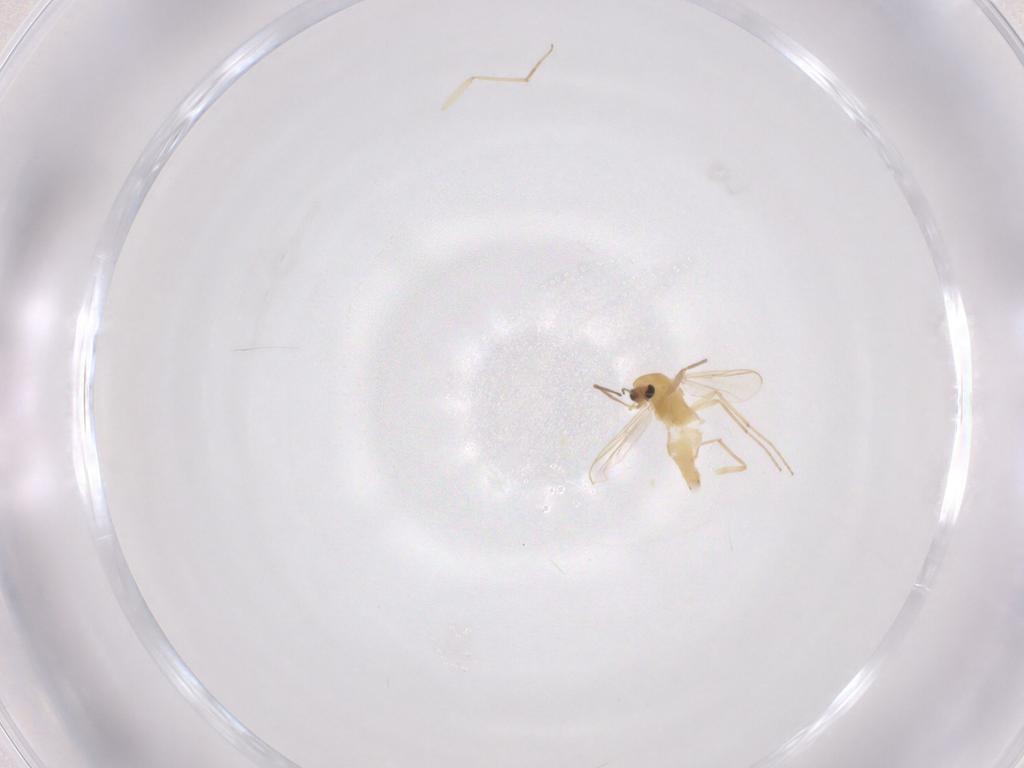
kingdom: Animalia
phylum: Arthropoda
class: Insecta
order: Diptera
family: Chironomidae
